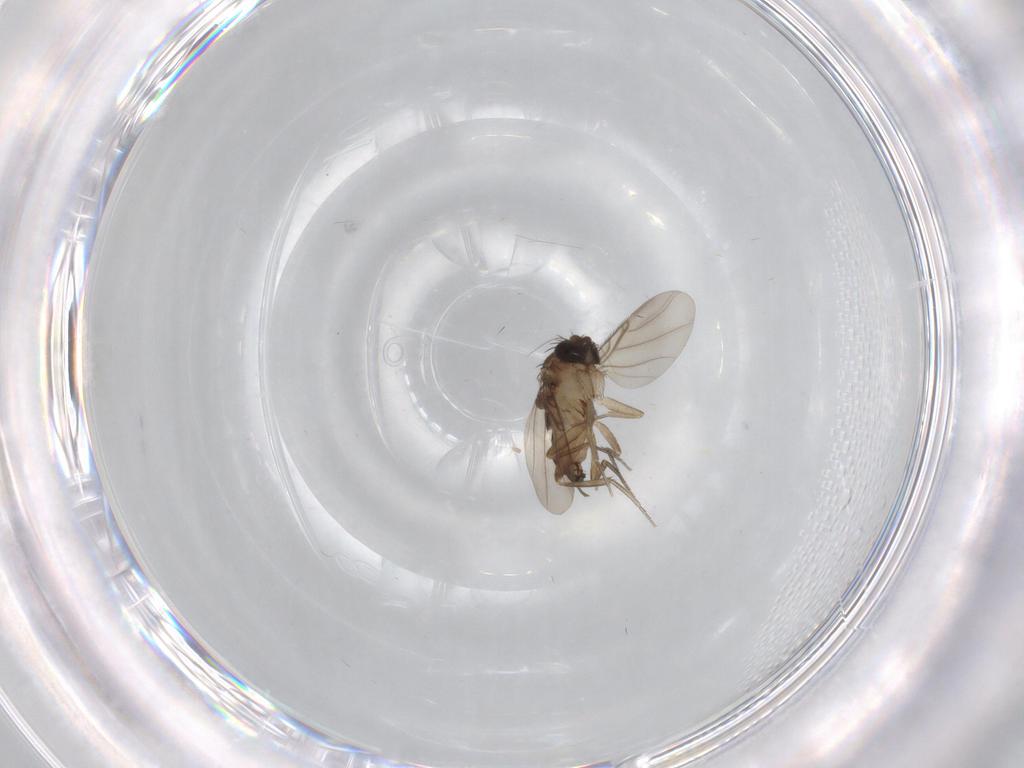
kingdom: Animalia
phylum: Arthropoda
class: Insecta
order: Diptera
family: Phoridae
